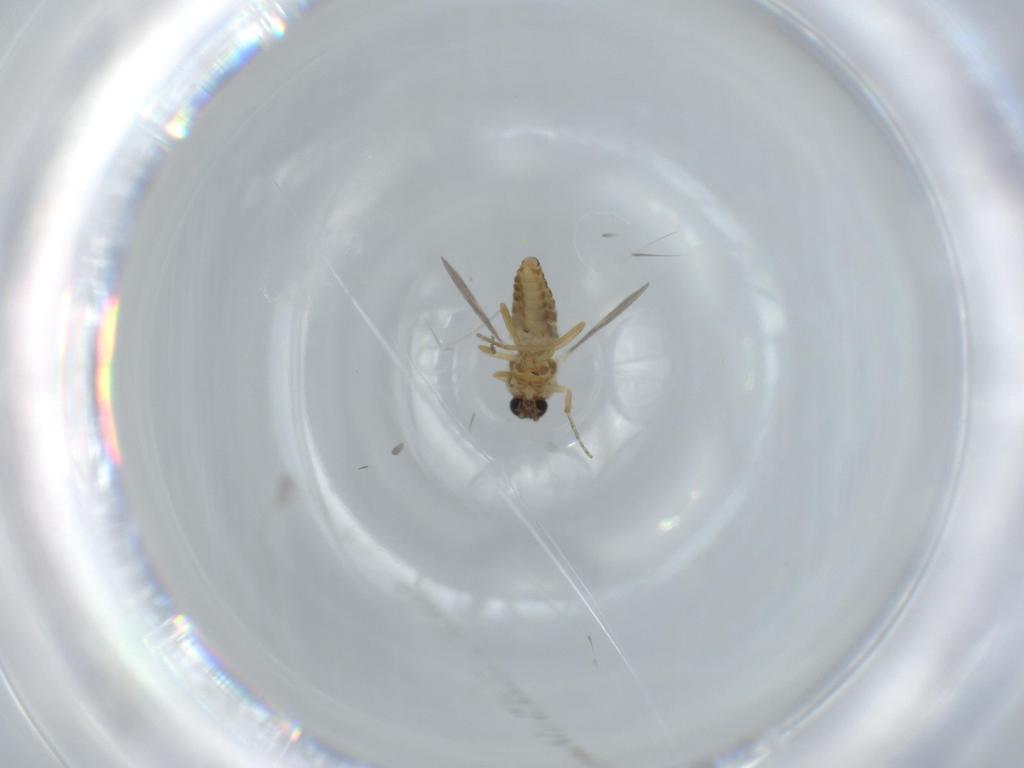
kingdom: Animalia
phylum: Arthropoda
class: Insecta
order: Diptera
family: Ceratopogonidae
